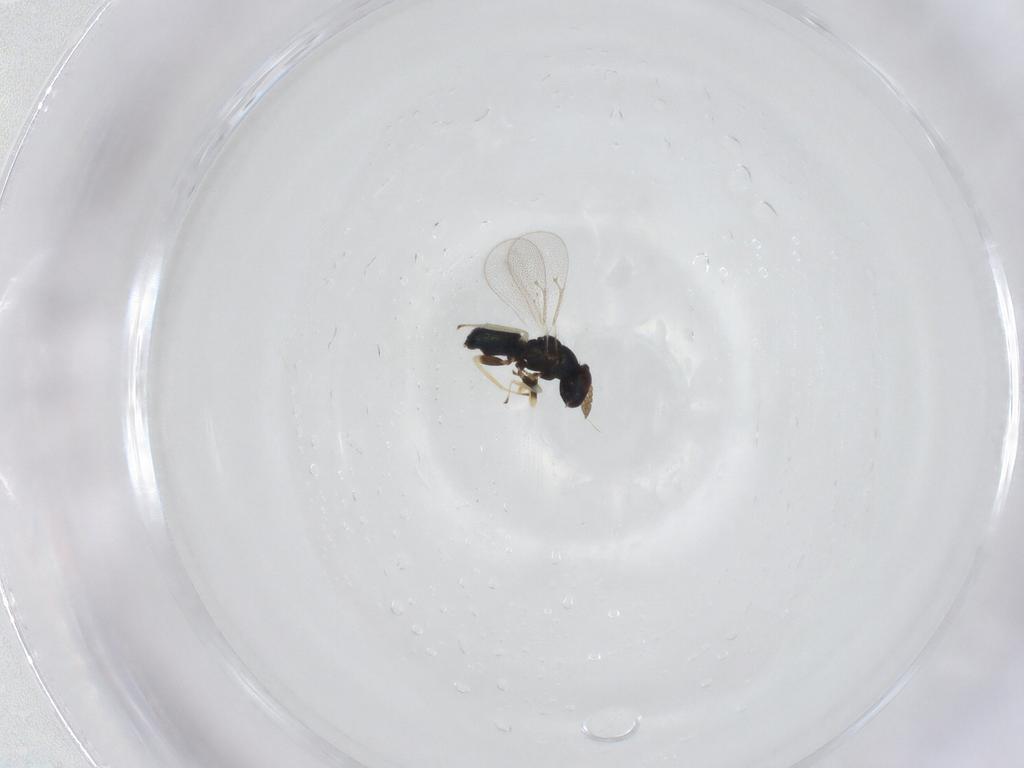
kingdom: Animalia
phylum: Arthropoda
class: Insecta
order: Hymenoptera
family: Eulophidae
